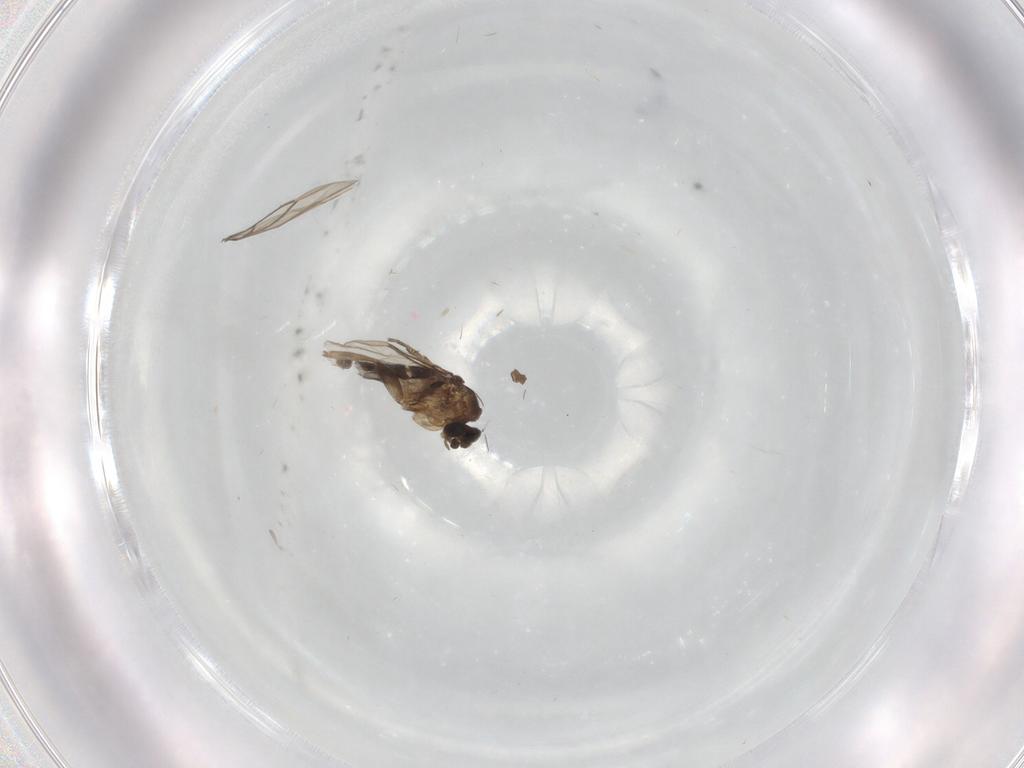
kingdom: Animalia
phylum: Arthropoda
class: Insecta
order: Diptera
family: Phoridae
